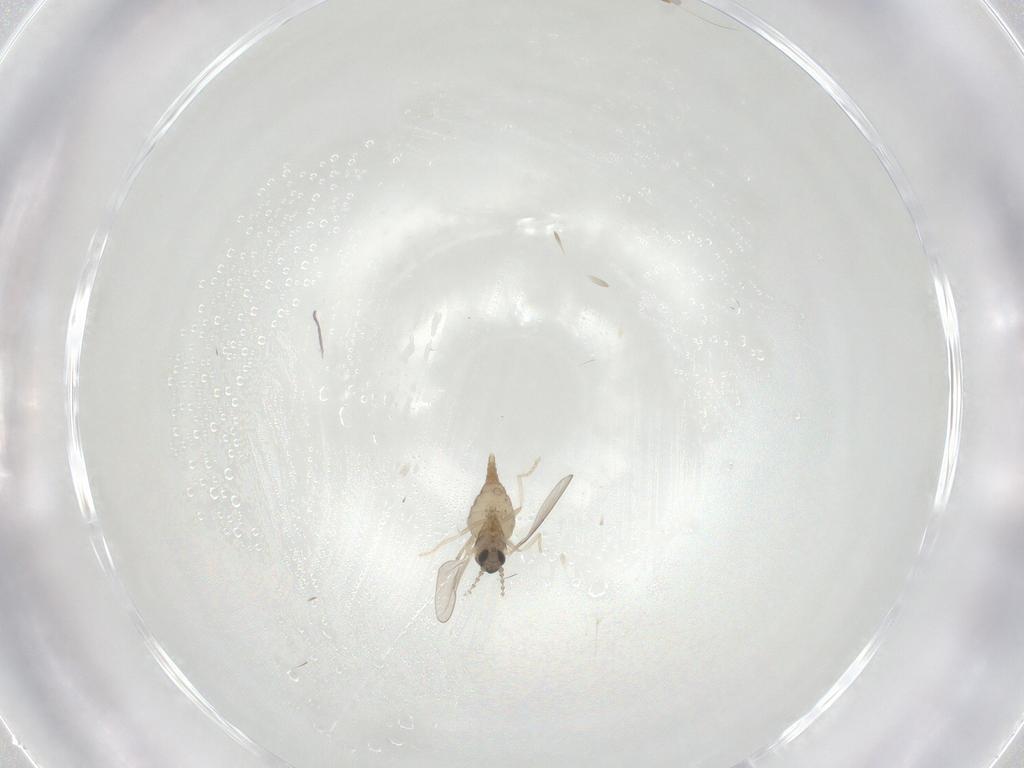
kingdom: Animalia
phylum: Arthropoda
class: Insecta
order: Diptera
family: Cecidomyiidae
